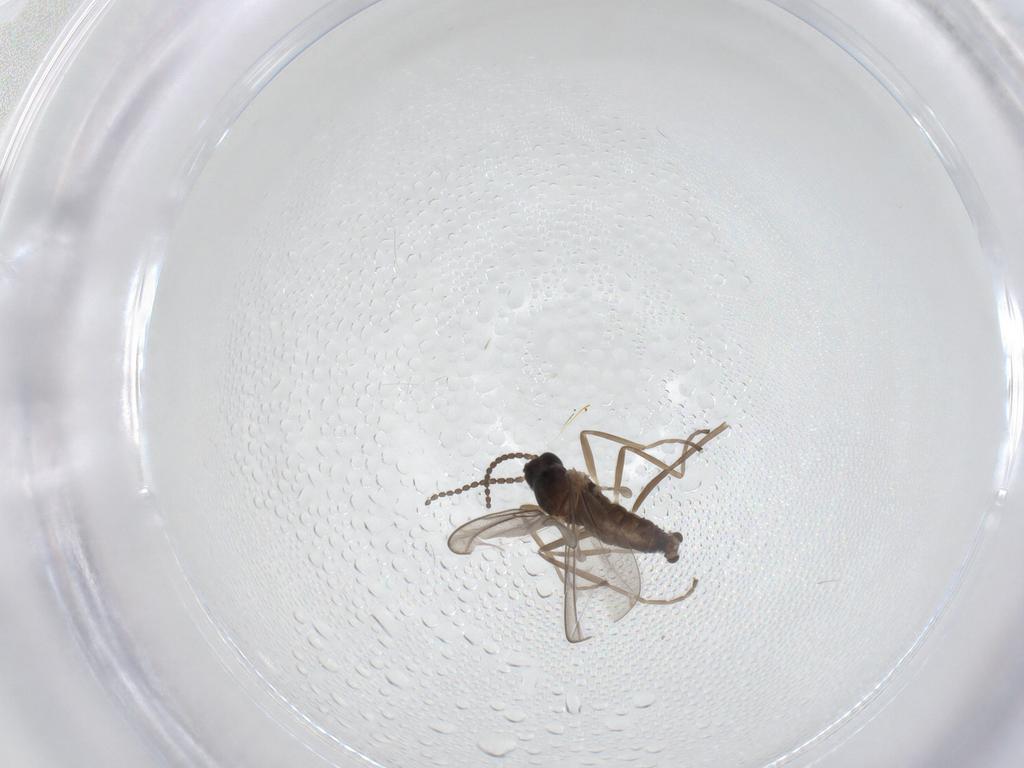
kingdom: Animalia
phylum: Arthropoda
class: Insecta
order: Diptera
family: Cecidomyiidae
